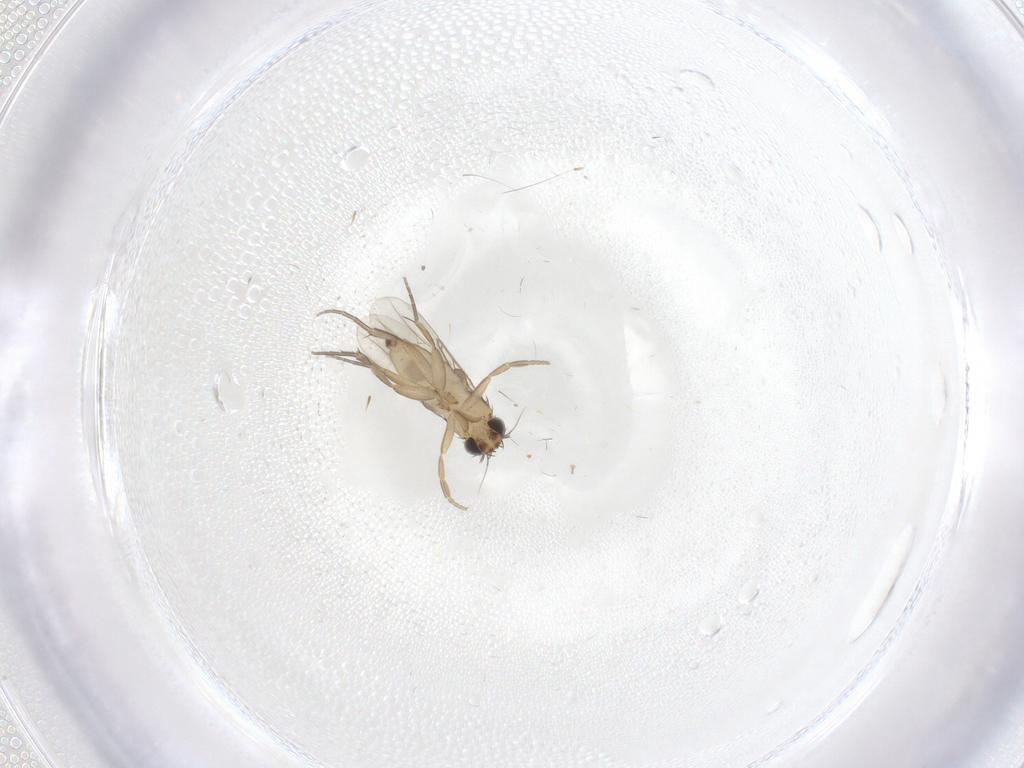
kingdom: Animalia
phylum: Arthropoda
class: Insecta
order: Diptera
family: Phoridae
